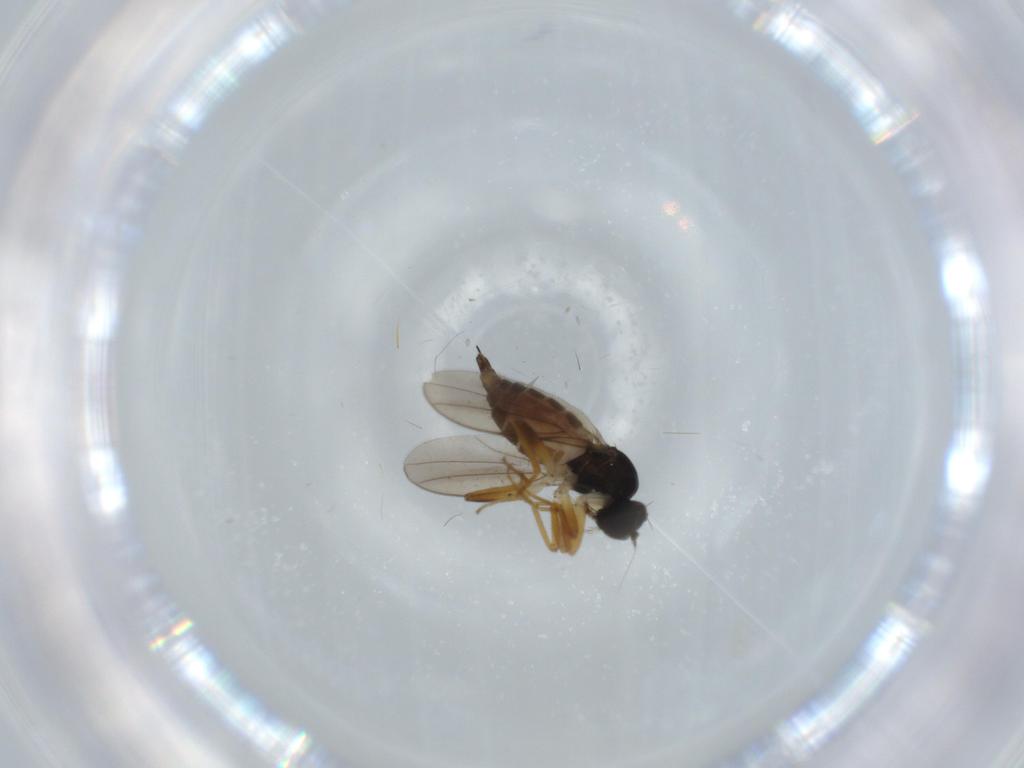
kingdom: Animalia
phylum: Arthropoda
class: Insecta
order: Diptera
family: Hybotidae
